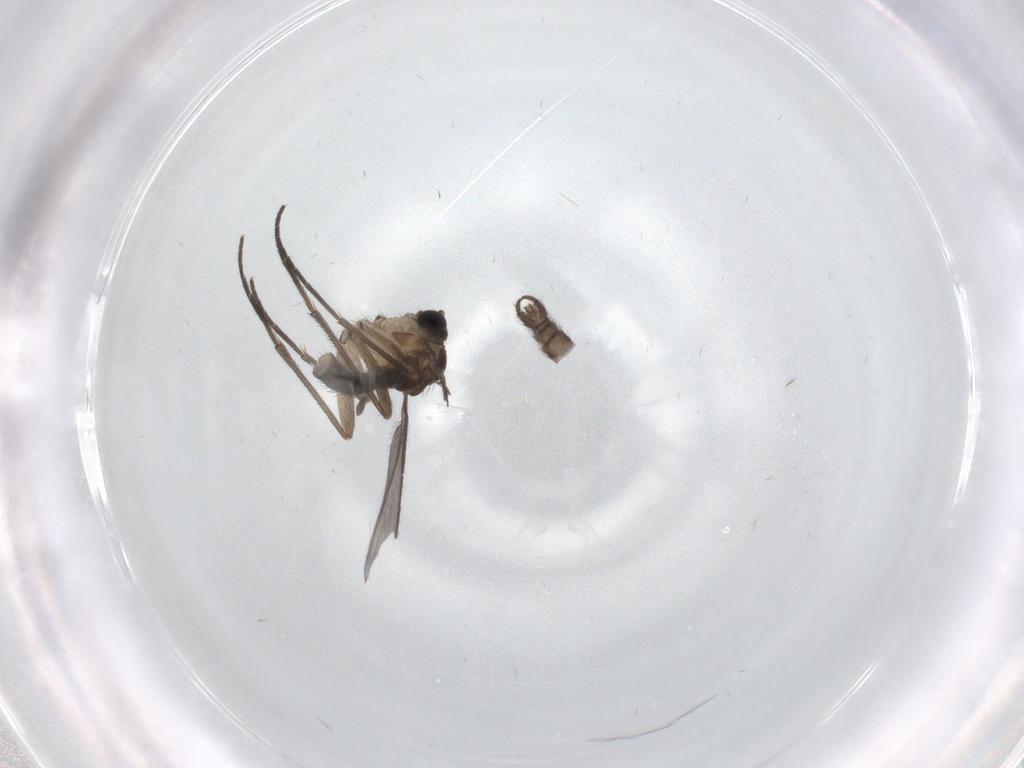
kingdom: Animalia
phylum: Arthropoda
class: Insecta
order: Diptera
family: Sciaridae
